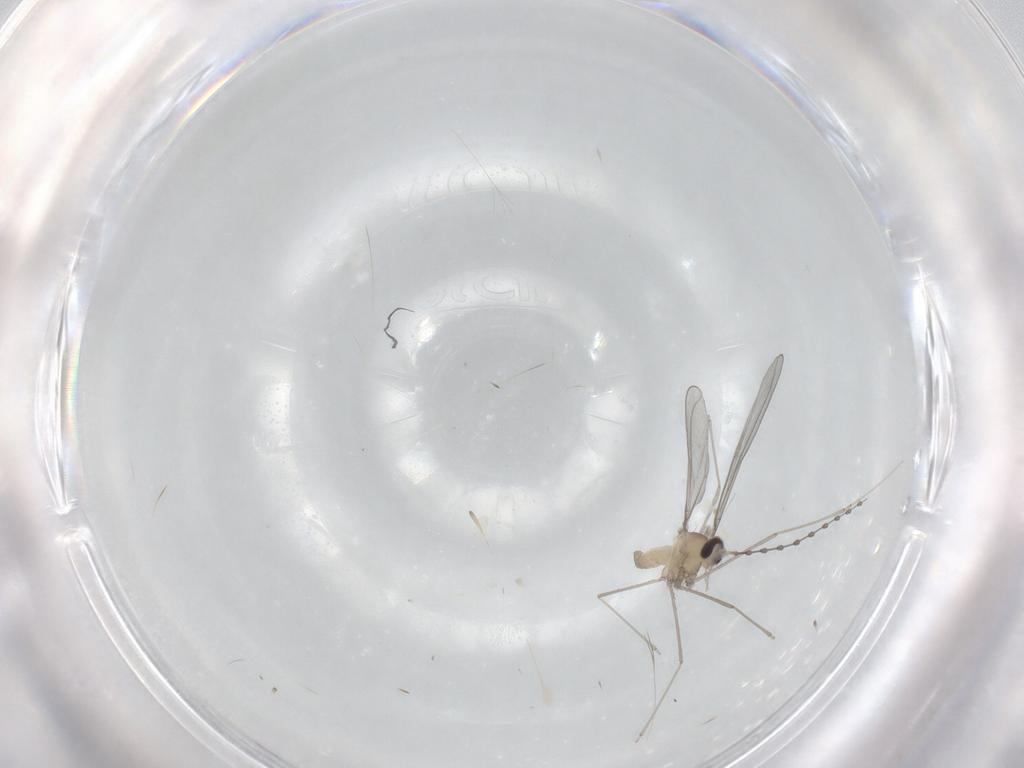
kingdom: Animalia
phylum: Arthropoda
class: Insecta
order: Diptera
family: Cecidomyiidae
